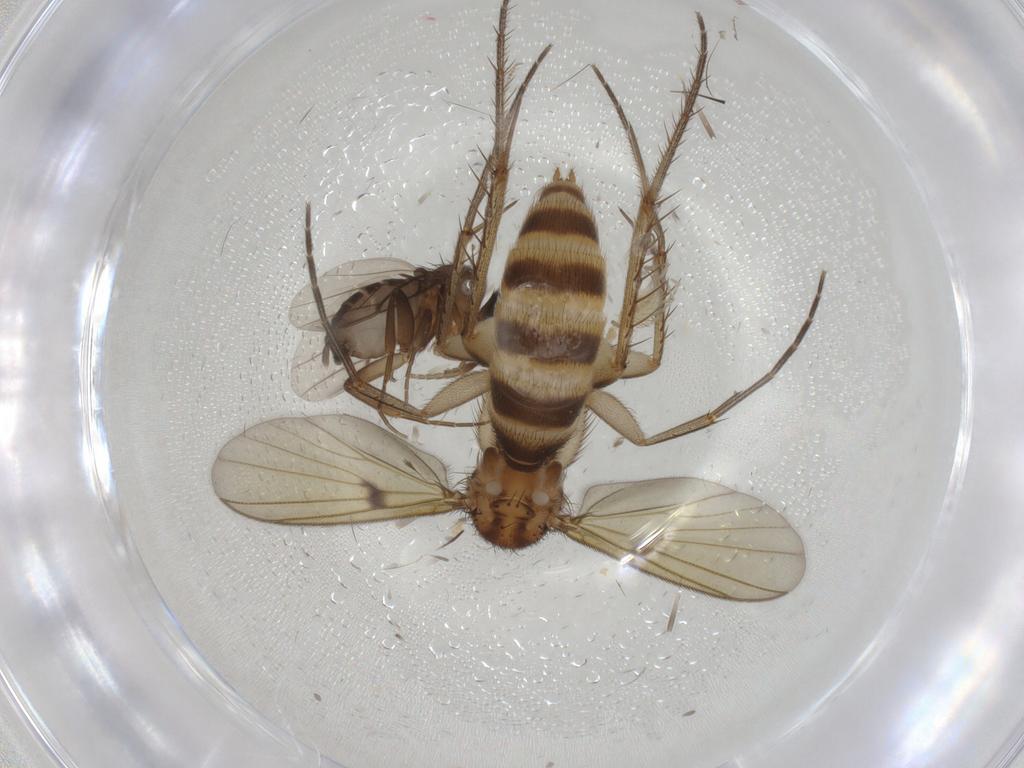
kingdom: Animalia
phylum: Arthropoda
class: Insecta
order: Diptera
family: Phoridae
